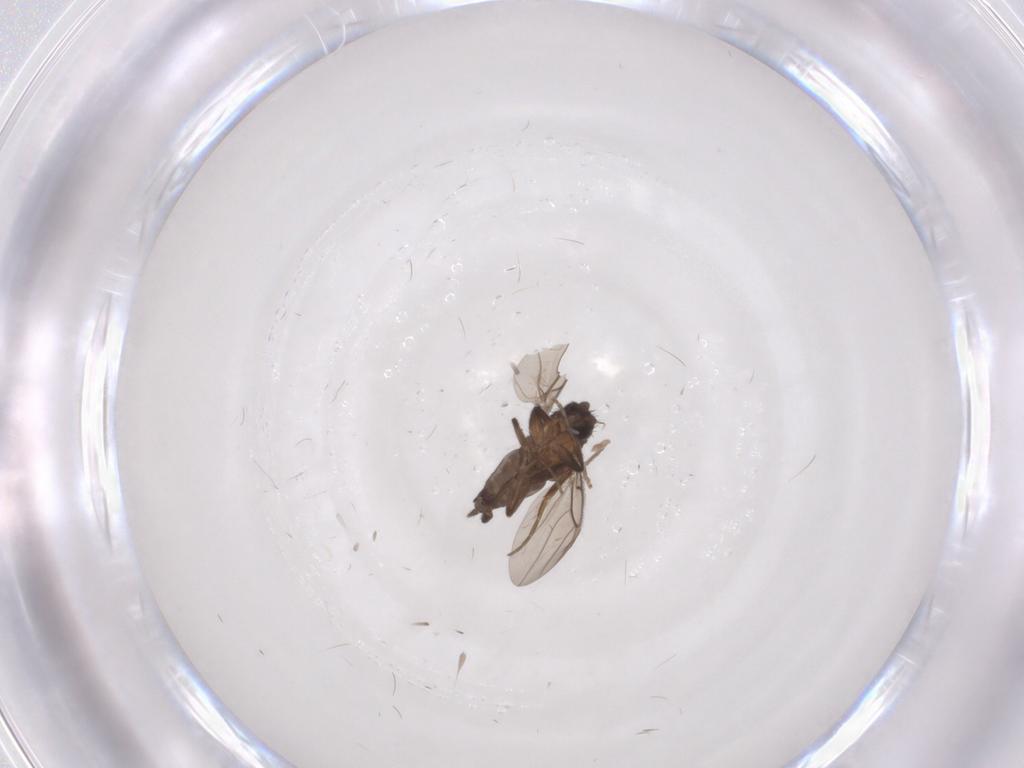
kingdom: Animalia
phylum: Arthropoda
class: Insecta
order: Diptera
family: Psychodidae
